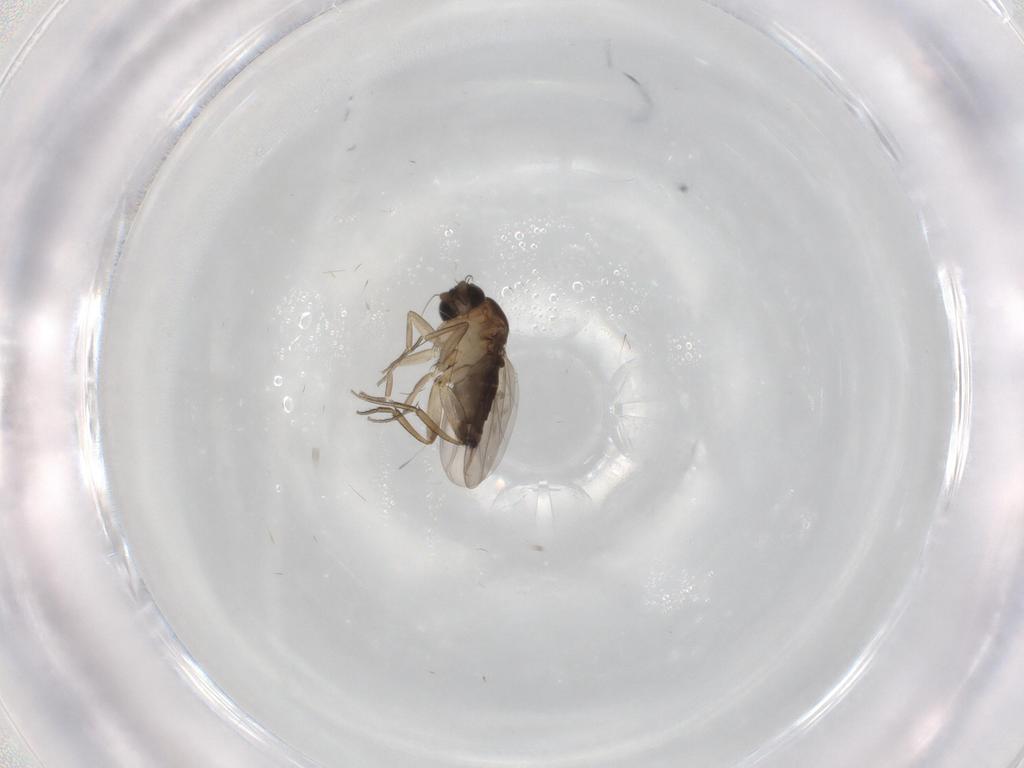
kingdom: Animalia
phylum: Arthropoda
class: Insecta
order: Diptera
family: Phoridae
